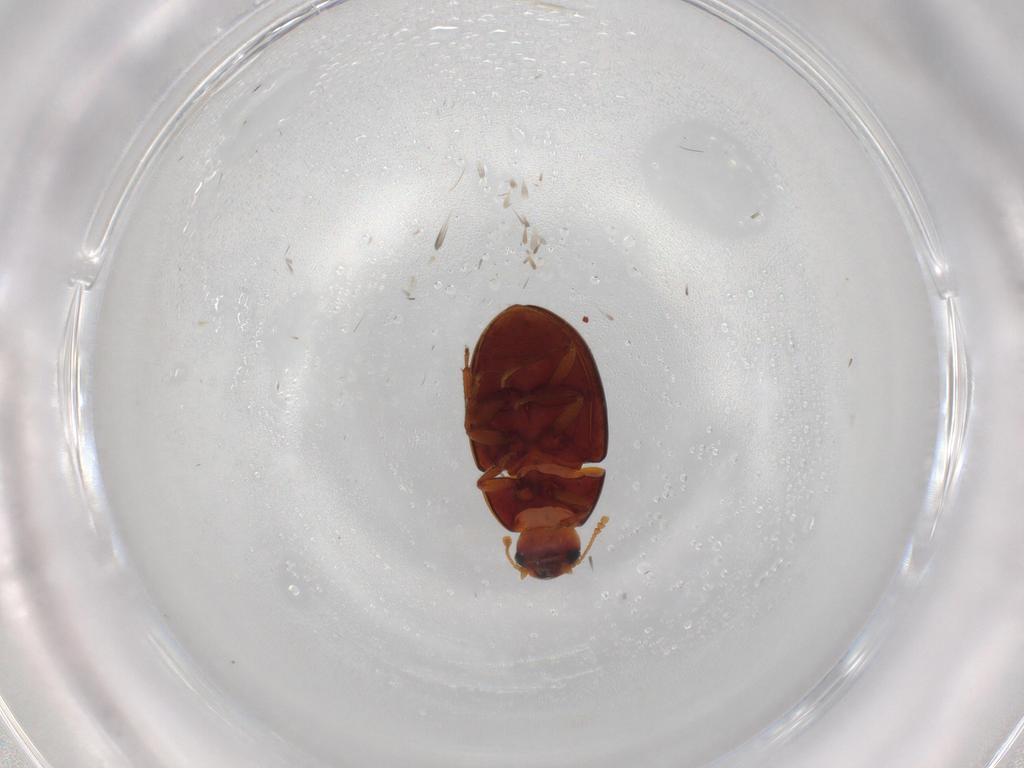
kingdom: Animalia
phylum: Arthropoda
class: Insecta
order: Coleoptera
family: Archeocrypticidae
